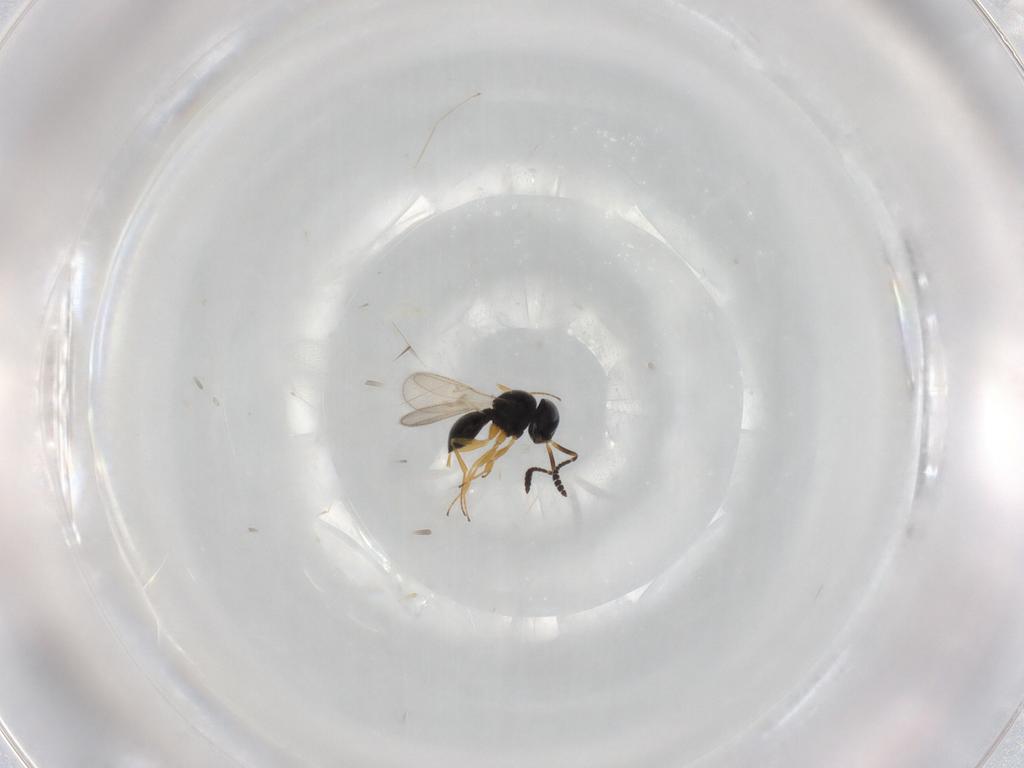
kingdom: Animalia
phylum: Arthropoda
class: Insecta
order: Hymenoptera
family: Scelionidae
